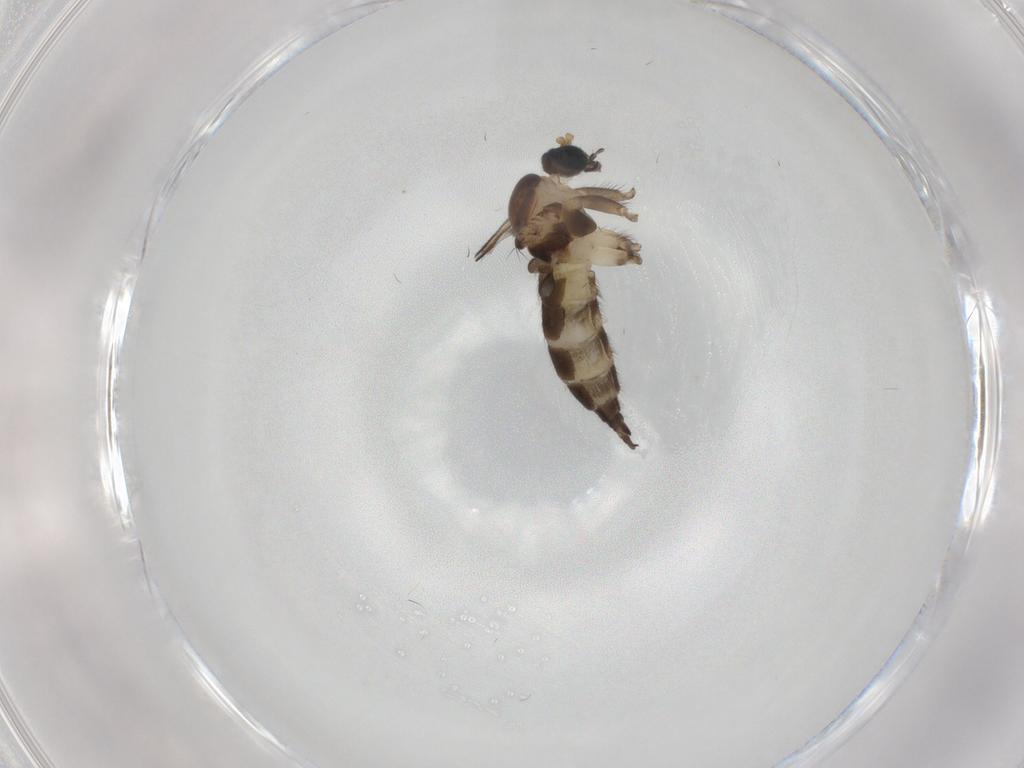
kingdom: Animalia
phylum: Arthropoda
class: Insecta
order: Diptera
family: Sciaridae
